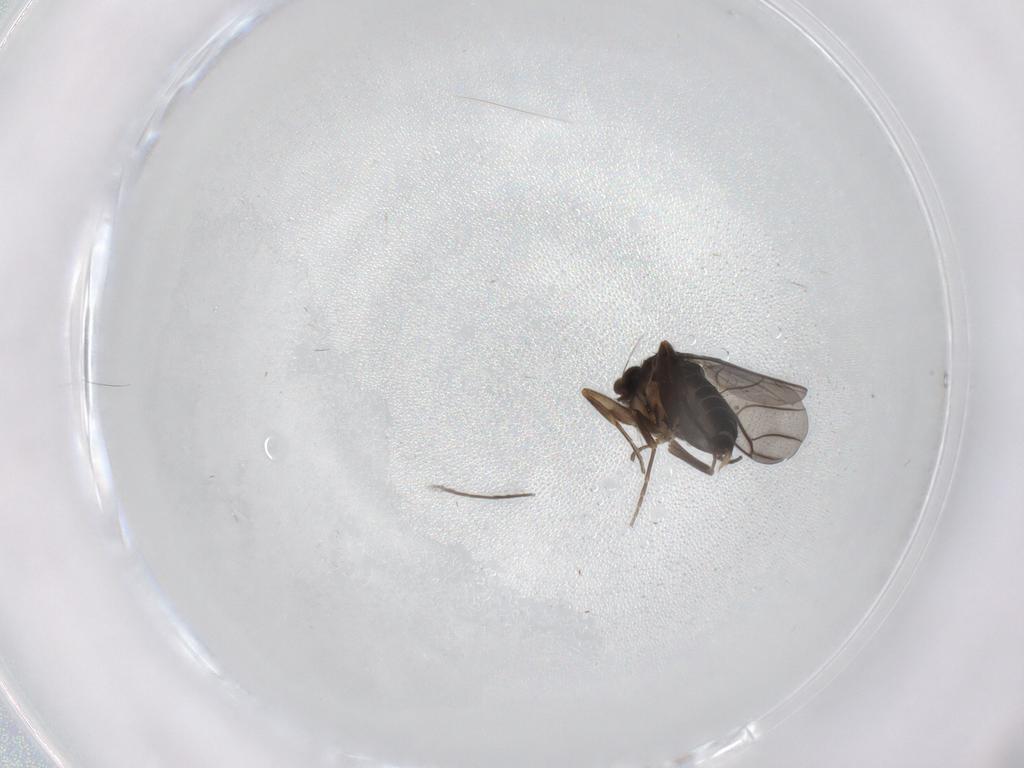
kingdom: Animalia
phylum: Arthropoda
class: Insecta
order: Diptera
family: Chironomidae
